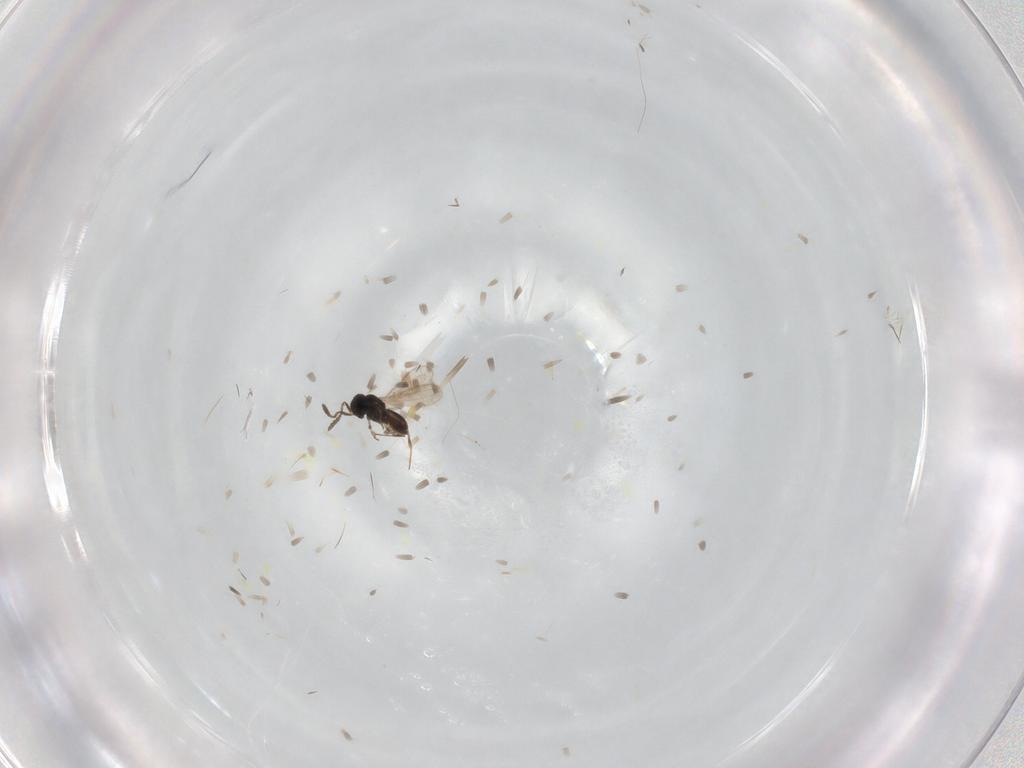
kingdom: Animalia
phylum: Arthropoda
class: Insecta
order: Hymenoptera
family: Scelionidae
